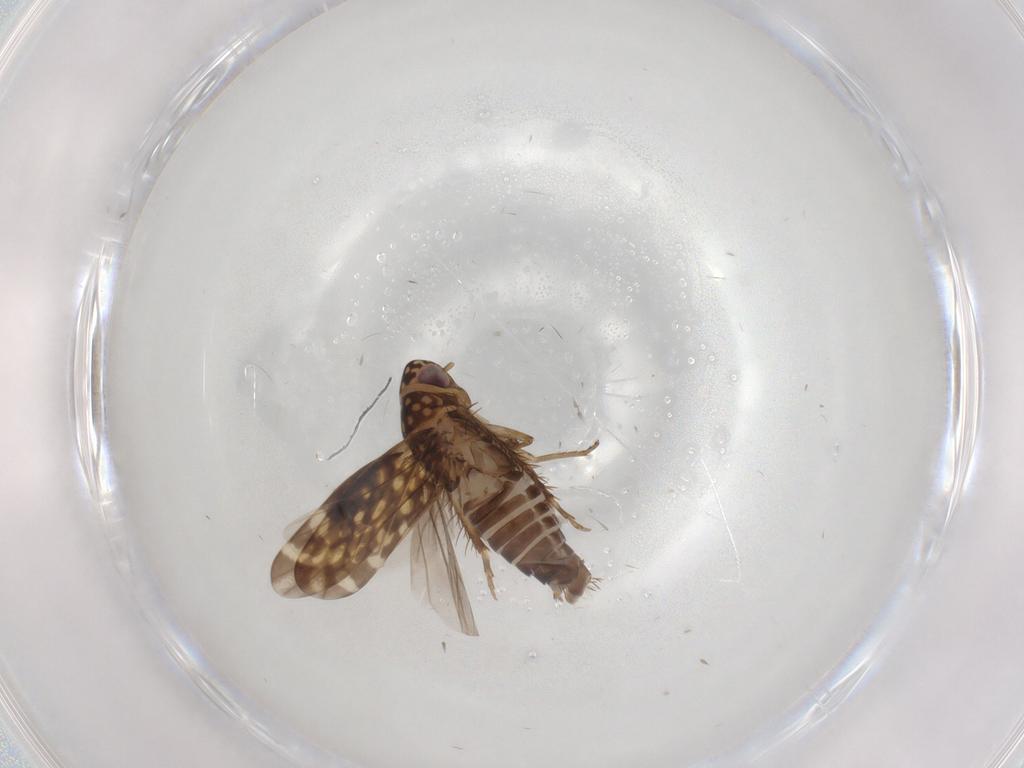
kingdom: Animalia
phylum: Arthropoda
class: Insecta
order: Hemiptera
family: Cicadellidae
